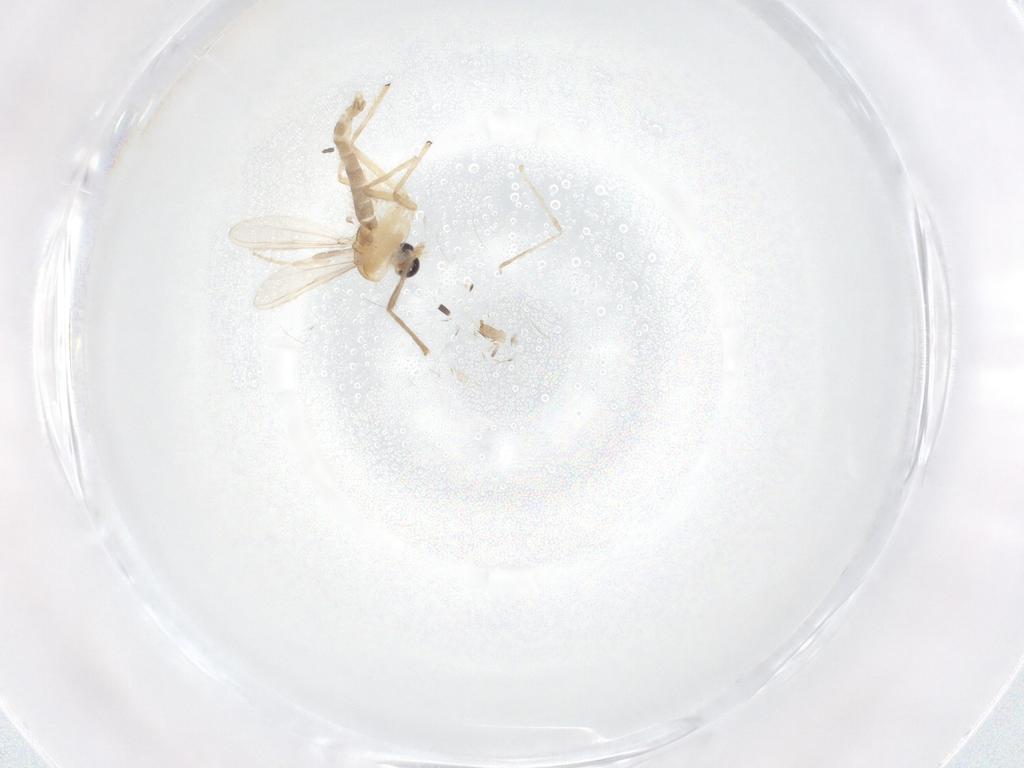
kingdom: Animalia
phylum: Arthropoda
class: Insecta
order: Diptera
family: Chironomidae
